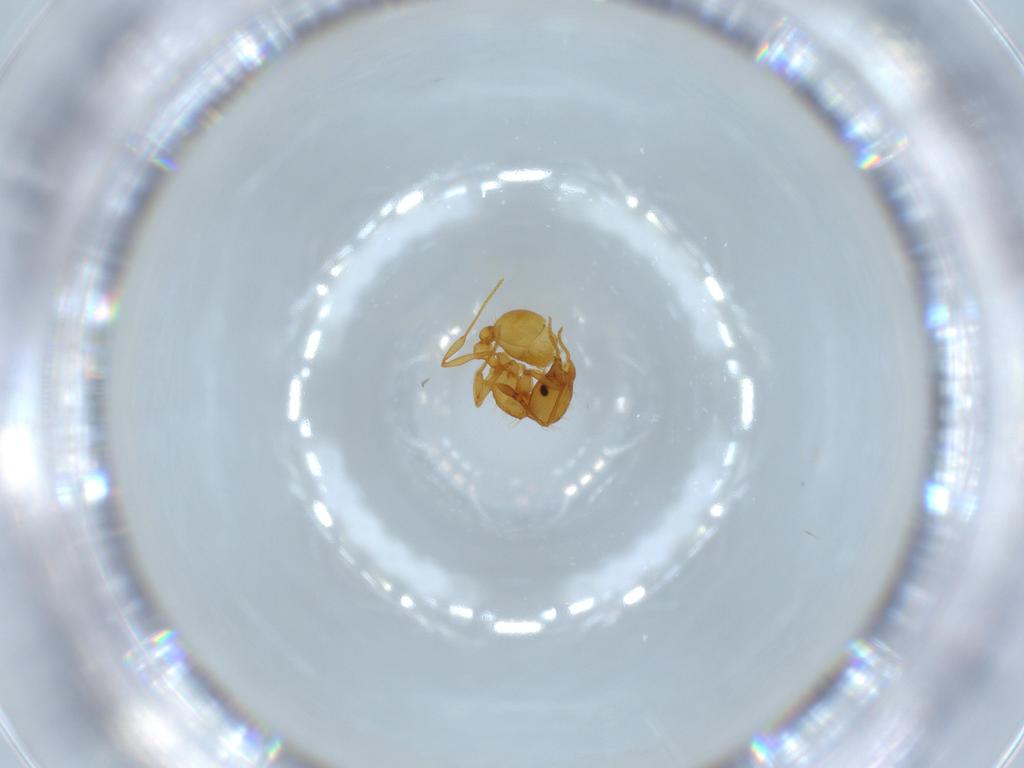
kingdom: Animalia
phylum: Arthropoda
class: Insecta
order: Hymenoptera
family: Formicidae
